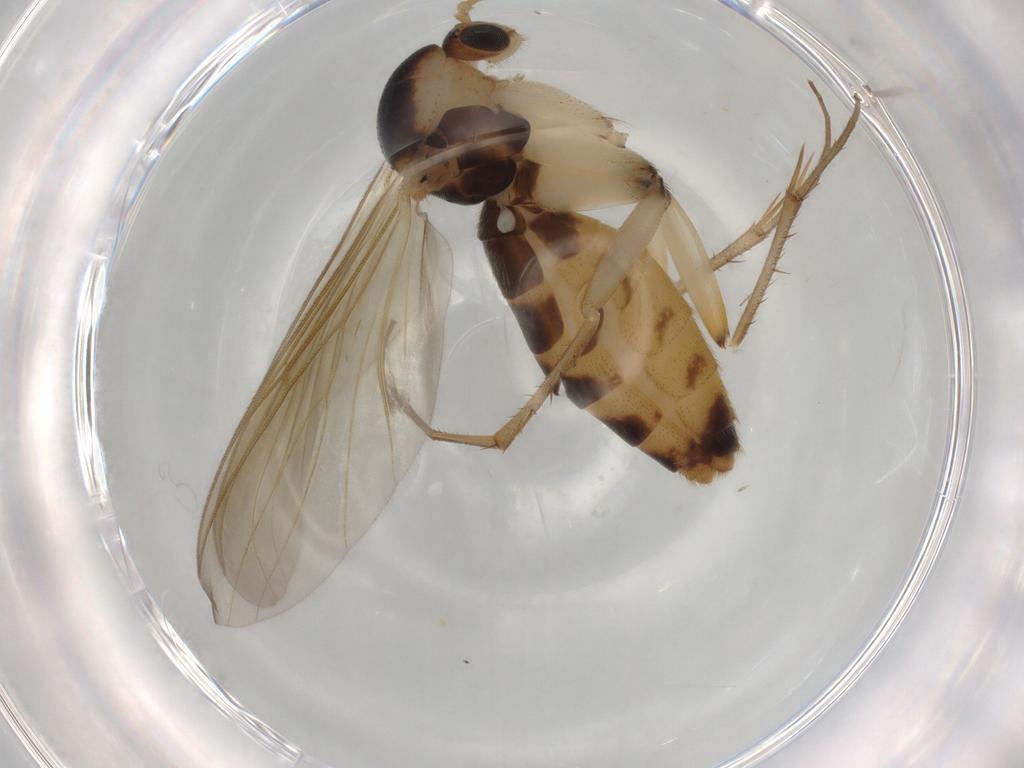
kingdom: Animalia
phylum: Arthropoda
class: Insecta
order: Diptera
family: Mycetophilidae
